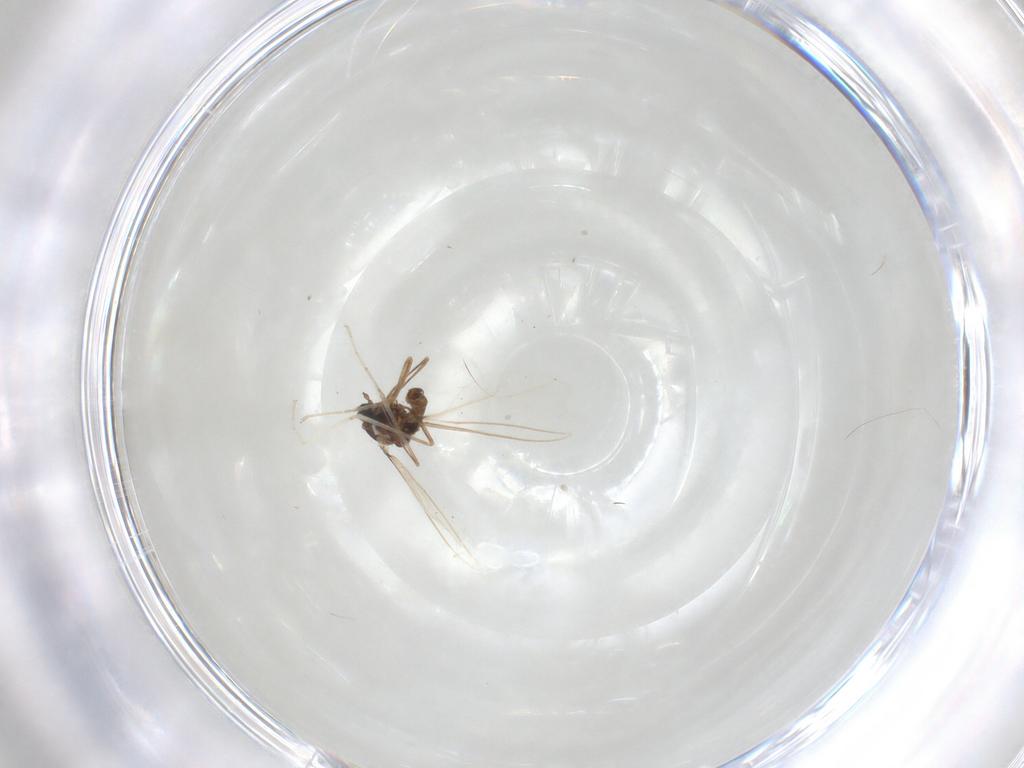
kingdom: Animalia
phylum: Arthropoda
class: Insecta
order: Diptera
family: Cecidomyiidae
